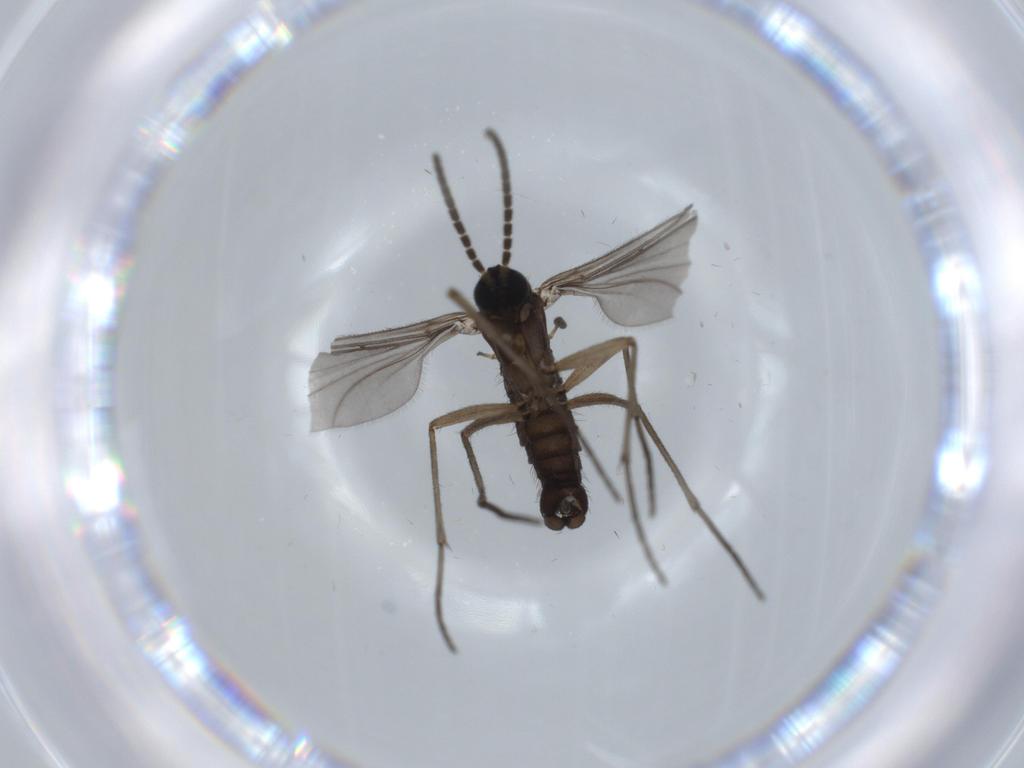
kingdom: Animalia
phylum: Arthropoda
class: Insecta
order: Diptera
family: Sciaridae
